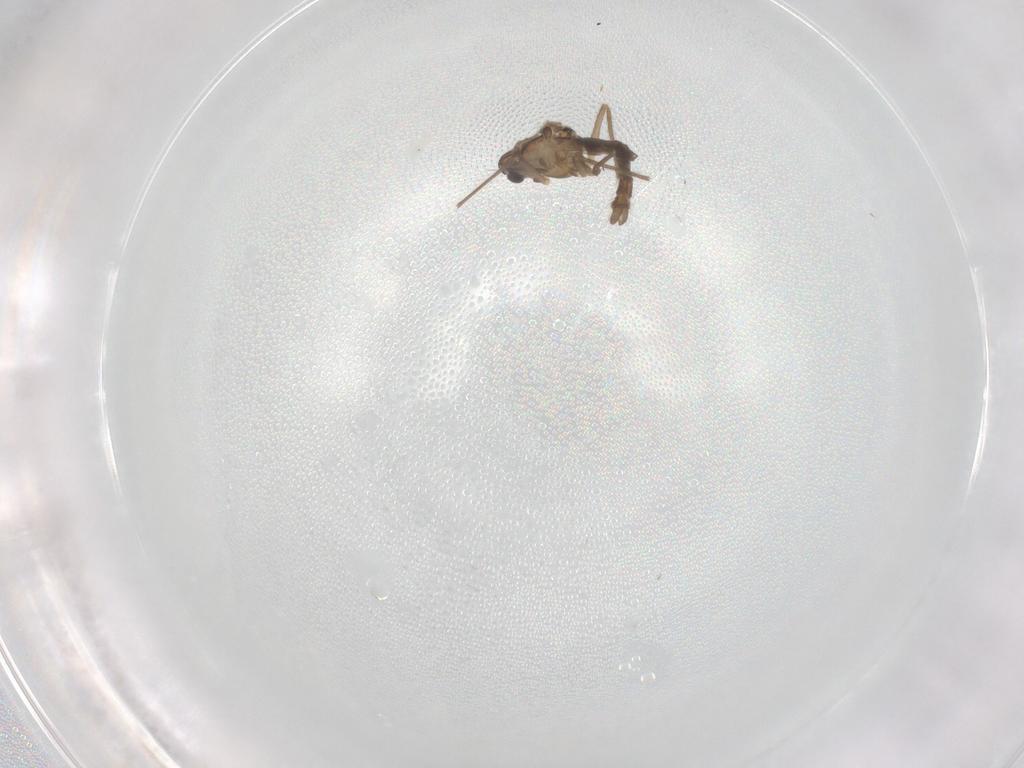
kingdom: Animalia
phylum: Arthropoda
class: Insecta
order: Diptera
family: Chironomidae
